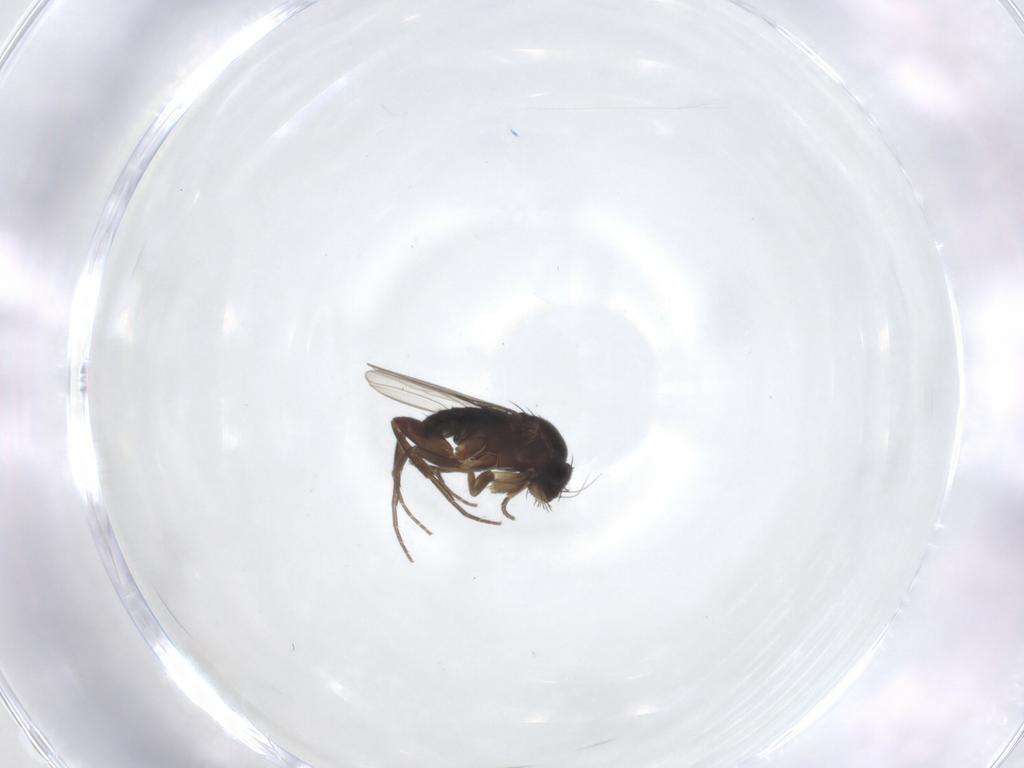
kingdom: Animalia
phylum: Arthropoda
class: Insecta
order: Diptera
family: Phoridae
